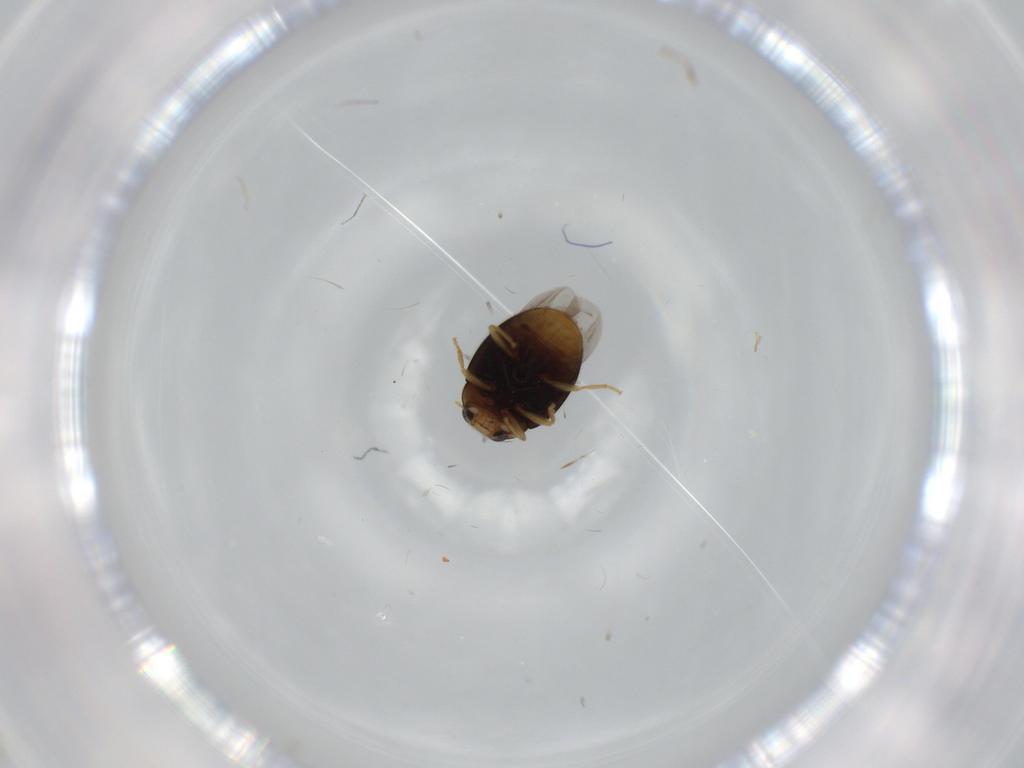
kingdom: Animalia
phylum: Arthropoda
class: Insecta
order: Coleoptera
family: Coccinellidae
